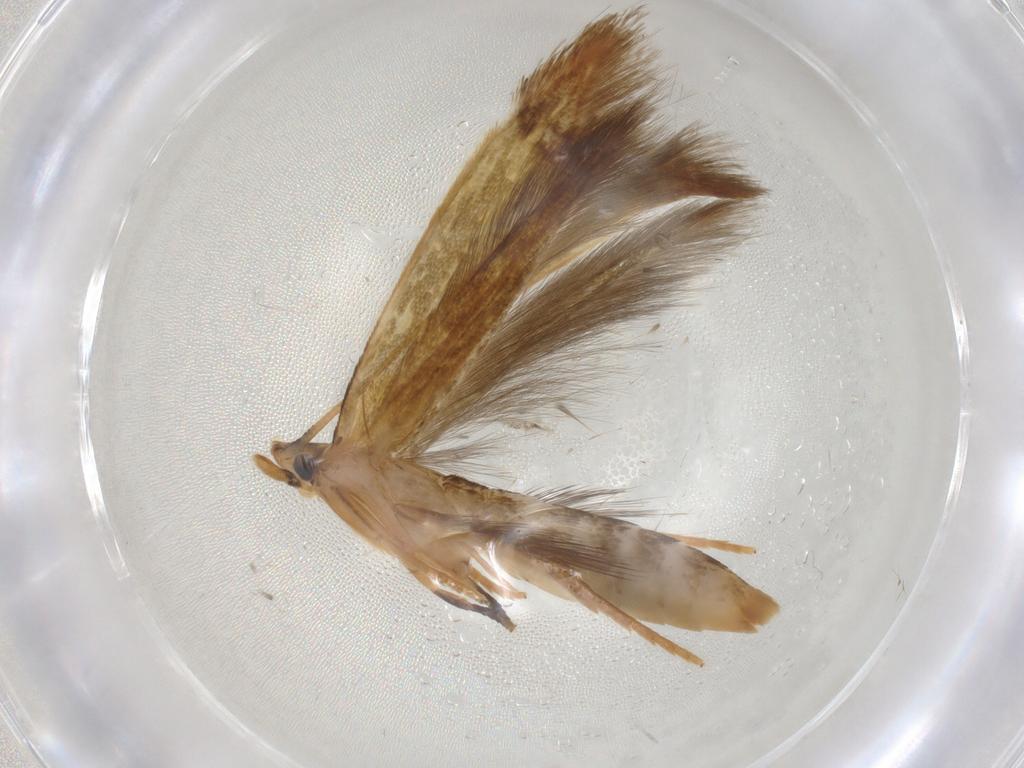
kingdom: Animalia
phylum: Arthropoda
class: Insecta
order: Lepidoptera
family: Tineidae
